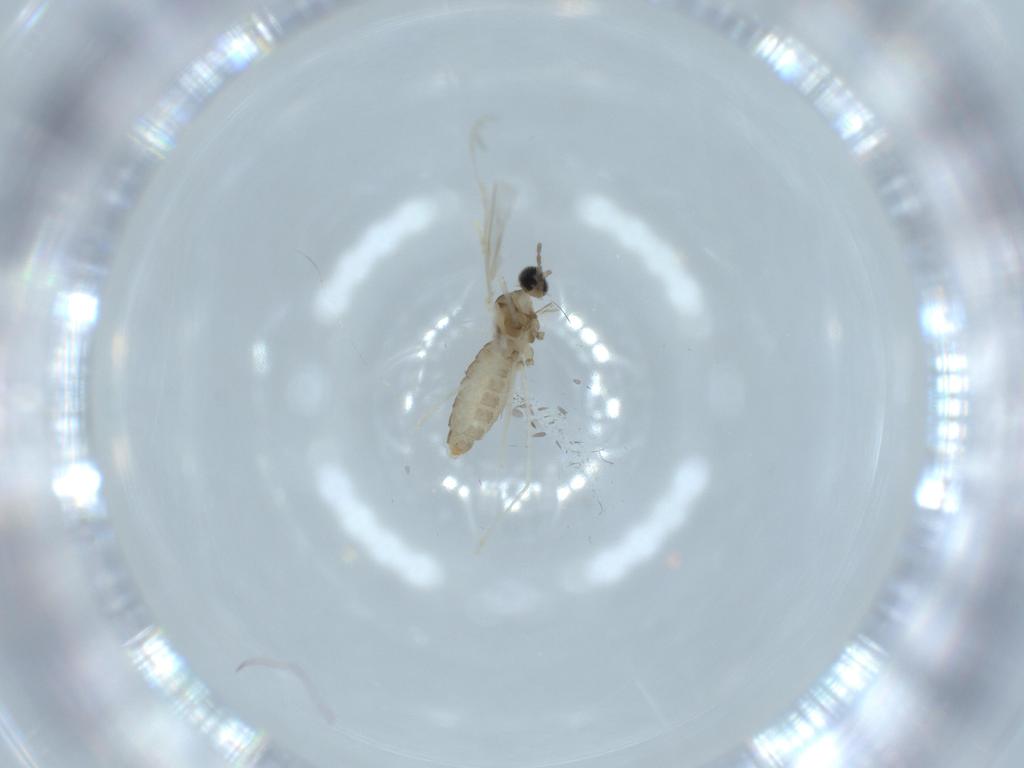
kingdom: Animalia
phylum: Arthropoda
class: Insecta
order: Diptera
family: Cecidomyiidae
